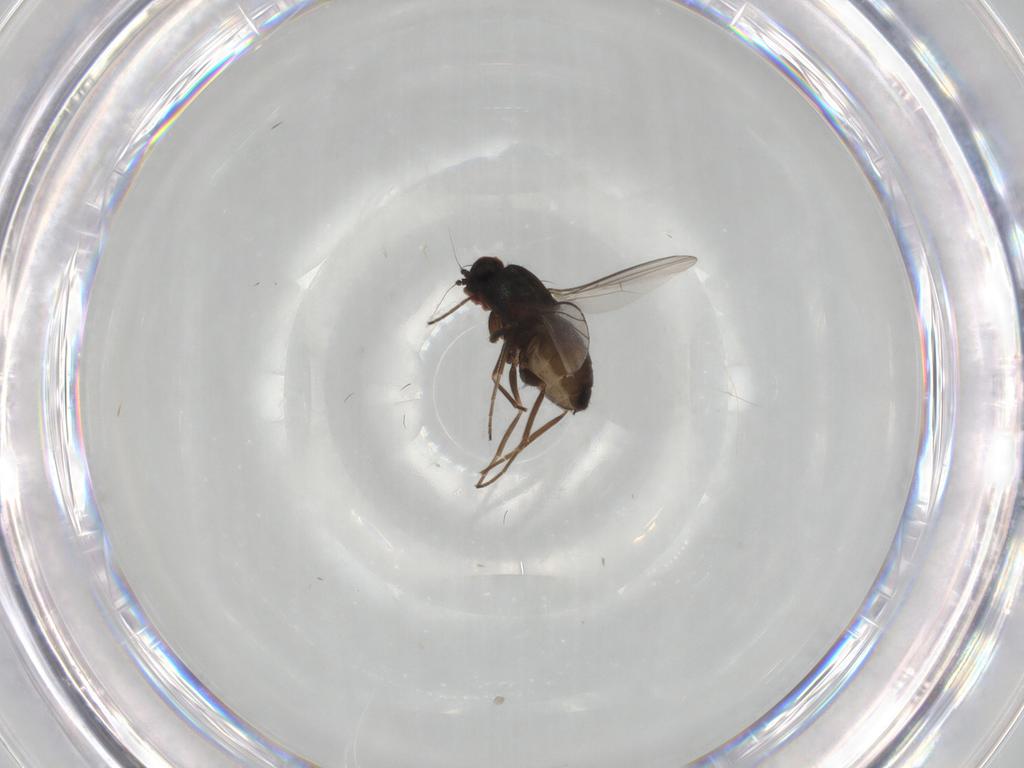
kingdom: Animalia
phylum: Arthropoda
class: Insecta
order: Diptera
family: Dolichopodidae
